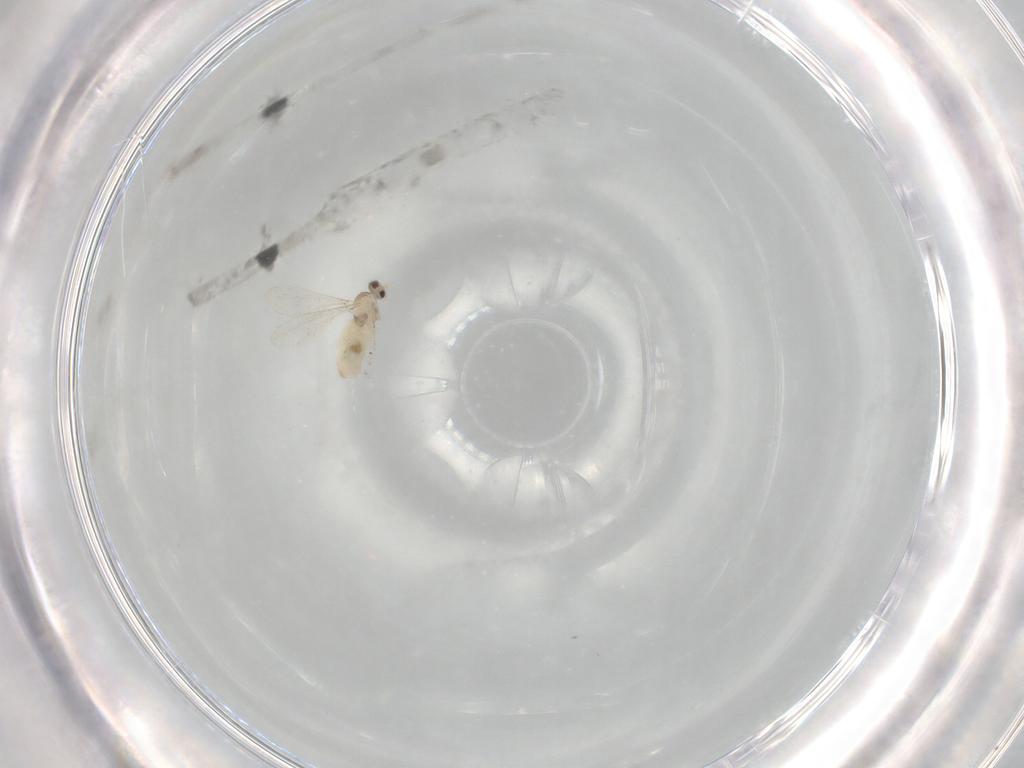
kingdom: Animalia
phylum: Arthropoda
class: Insecta
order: Diptera
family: Cecidomyiidae
